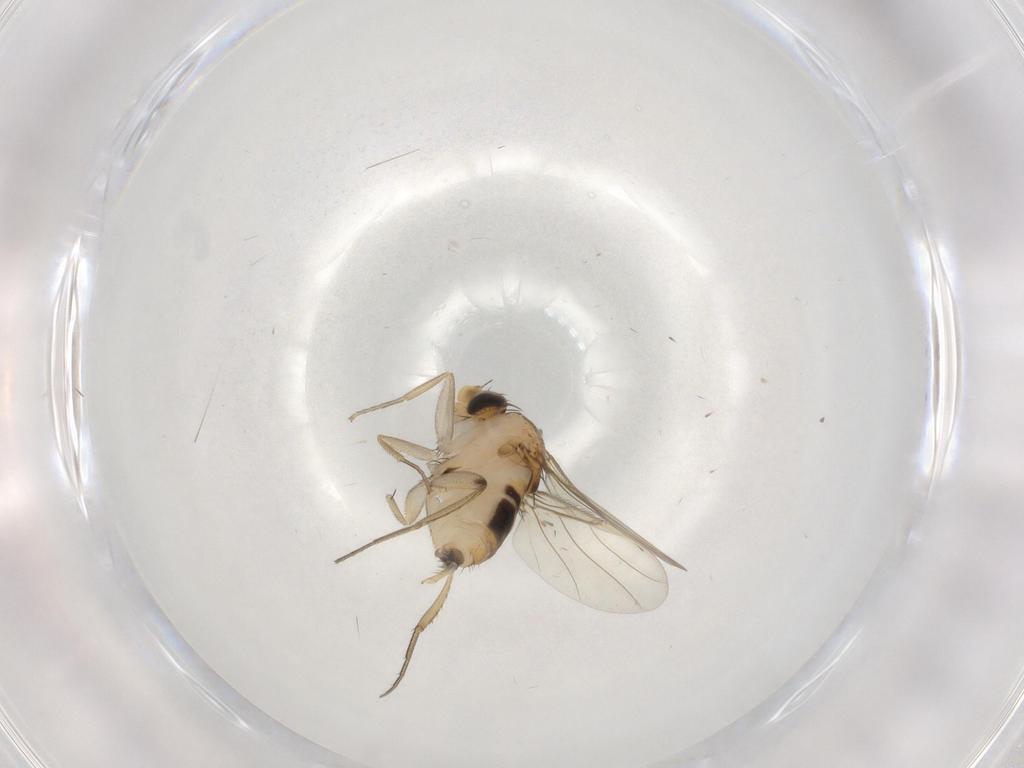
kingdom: Animalia
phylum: Arthropoda
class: Insecta
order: Diptera
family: Phoridae
